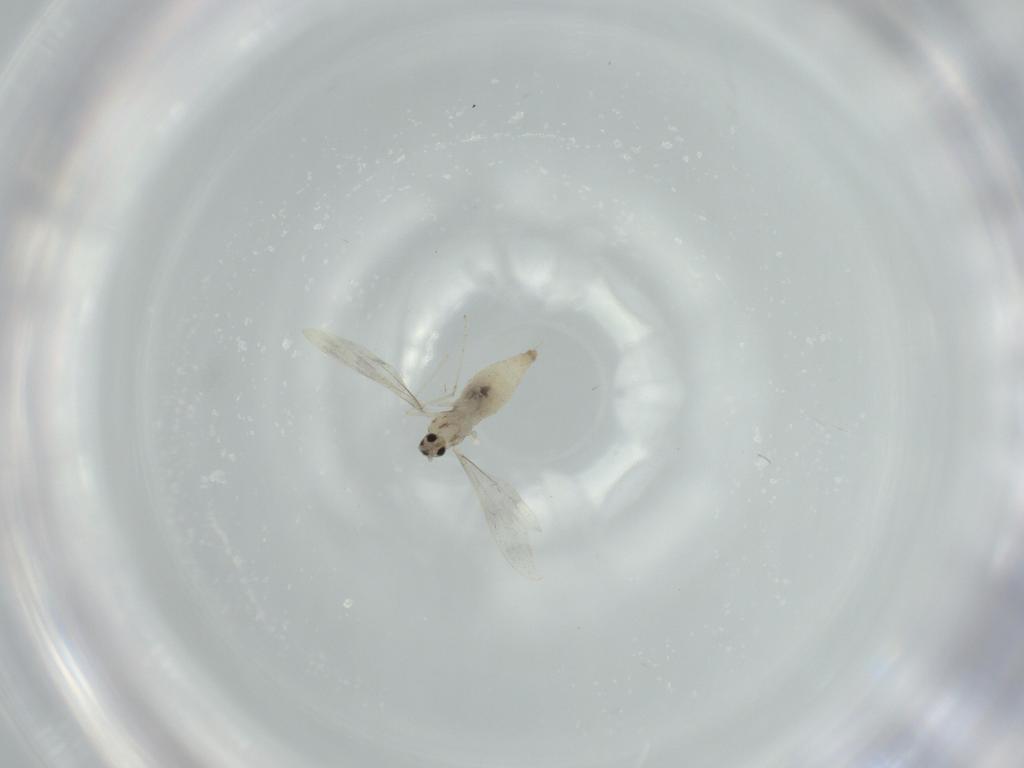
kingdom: Animalia
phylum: Arthropoda
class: Insecta
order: Diptera
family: Cecidomyiidae
